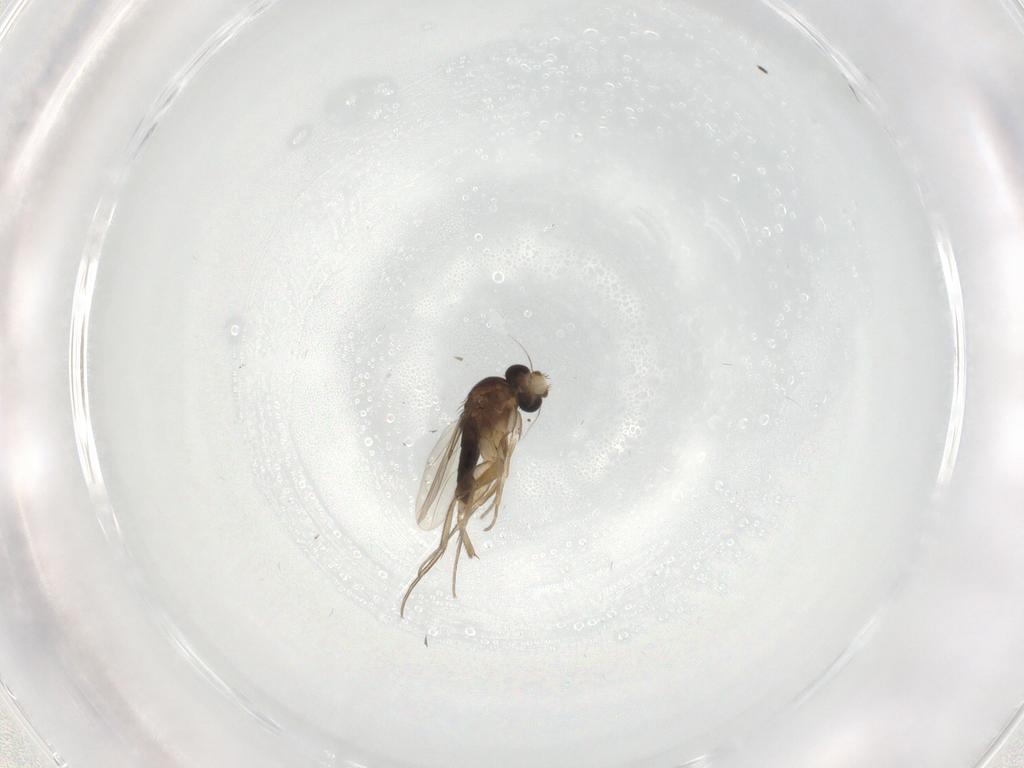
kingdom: Animalia
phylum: Arthropoda
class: Insecta
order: Diptera
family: Phoridae
